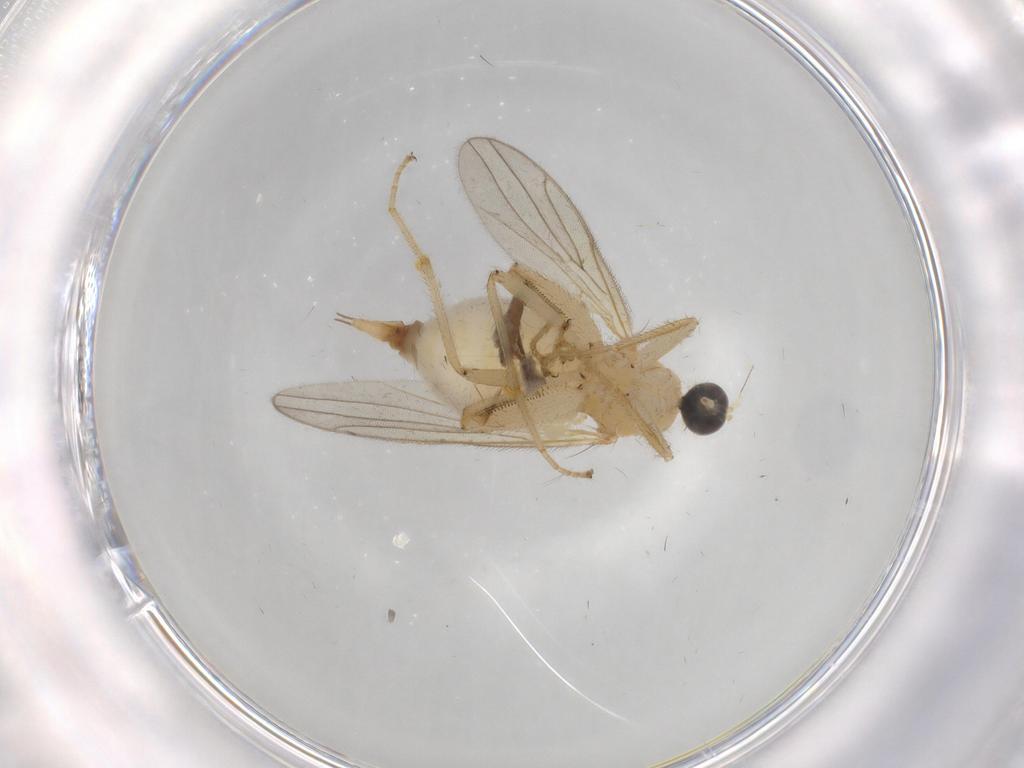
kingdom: Animalia
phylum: Arthropoda
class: Insecta
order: Diptera
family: Hybotidae
